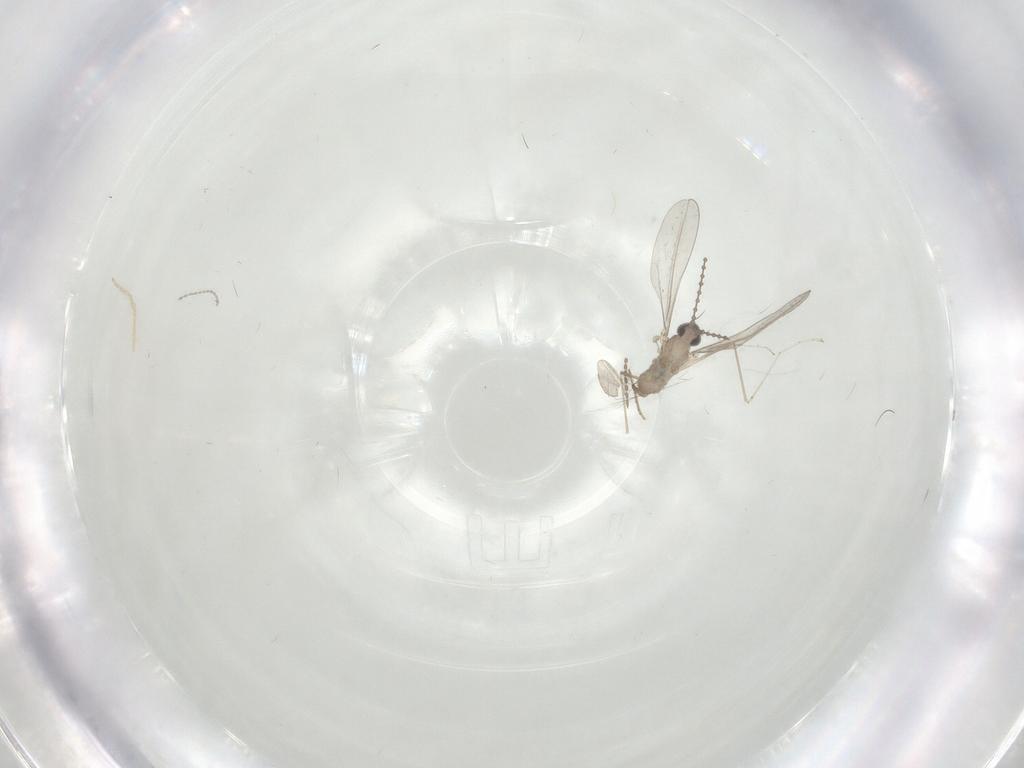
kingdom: Animalia
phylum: Arthropoda
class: Insecta
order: Diptera
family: Cecidomyiidae
